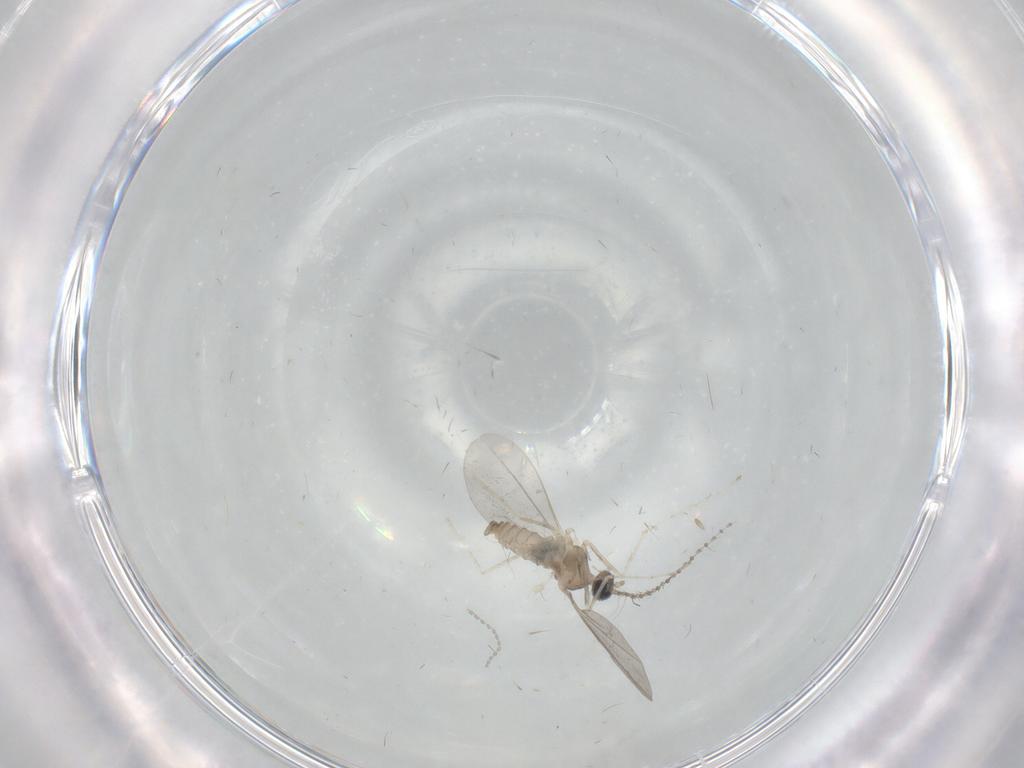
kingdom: Animalia
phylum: Arthropoda
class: Insecta
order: Diptera
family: Cecidomyiidae
